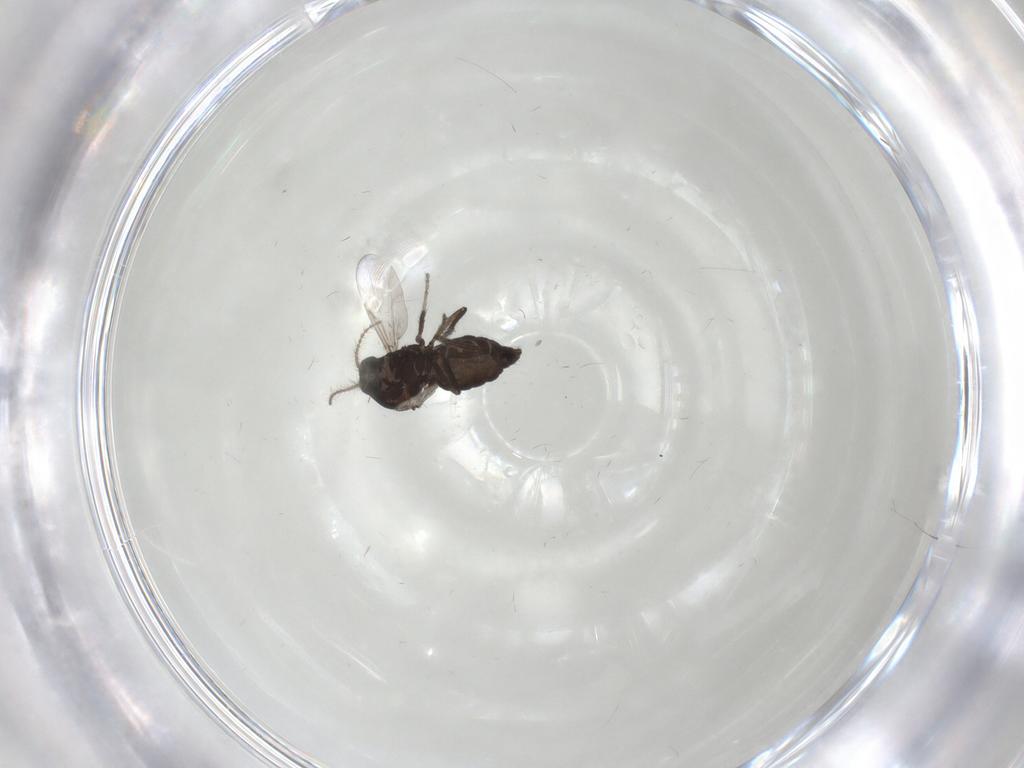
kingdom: Animalia
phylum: Arthropoda
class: Insecta
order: Diptera
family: Ceratopogonidae
